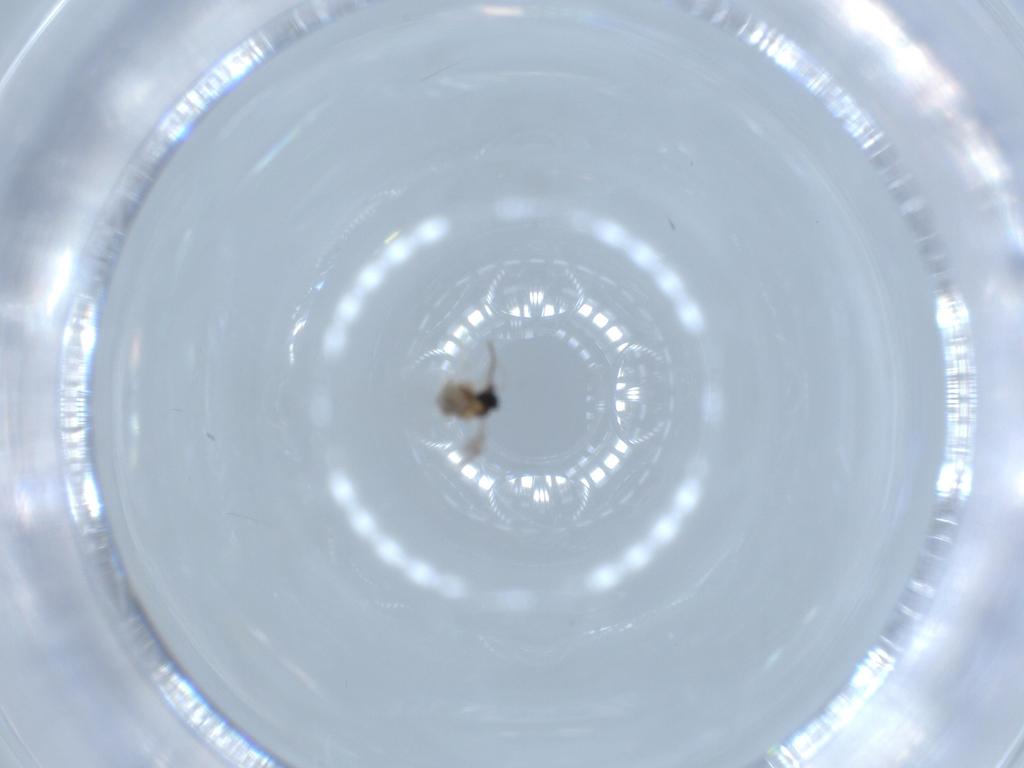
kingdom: Animalia
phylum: Arthropoda
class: Insecta
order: Diptera
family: Cecidomyiidae
